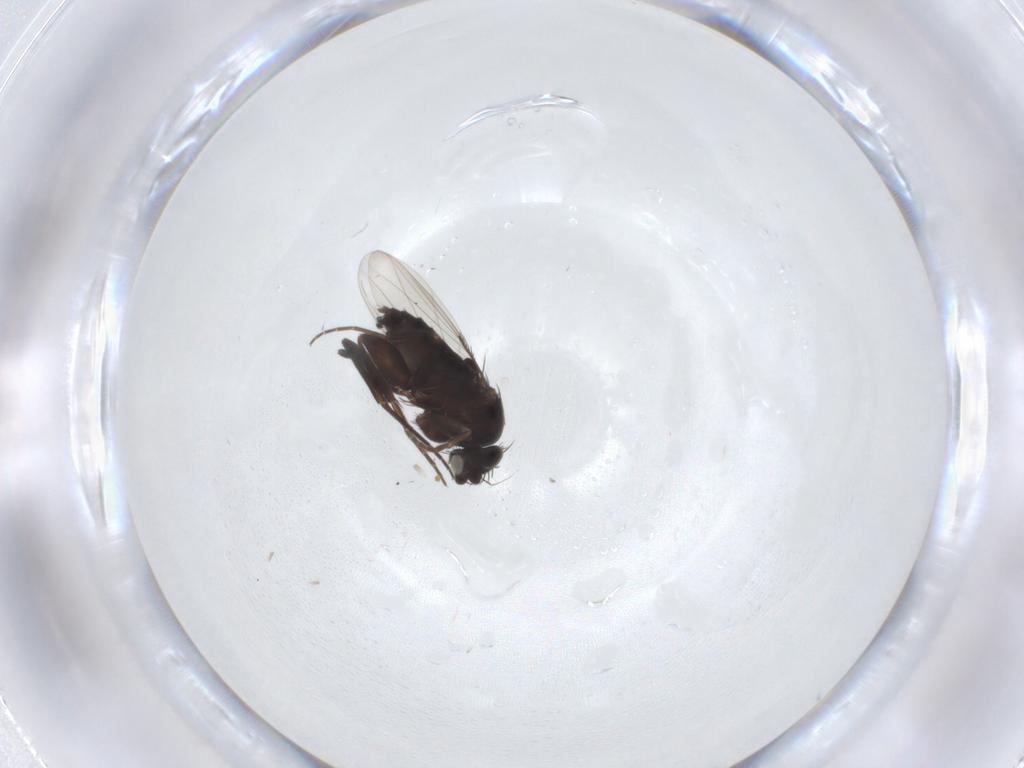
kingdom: Animalia
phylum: Arthropoda
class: Insecta
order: Diptera
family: Phoridae
